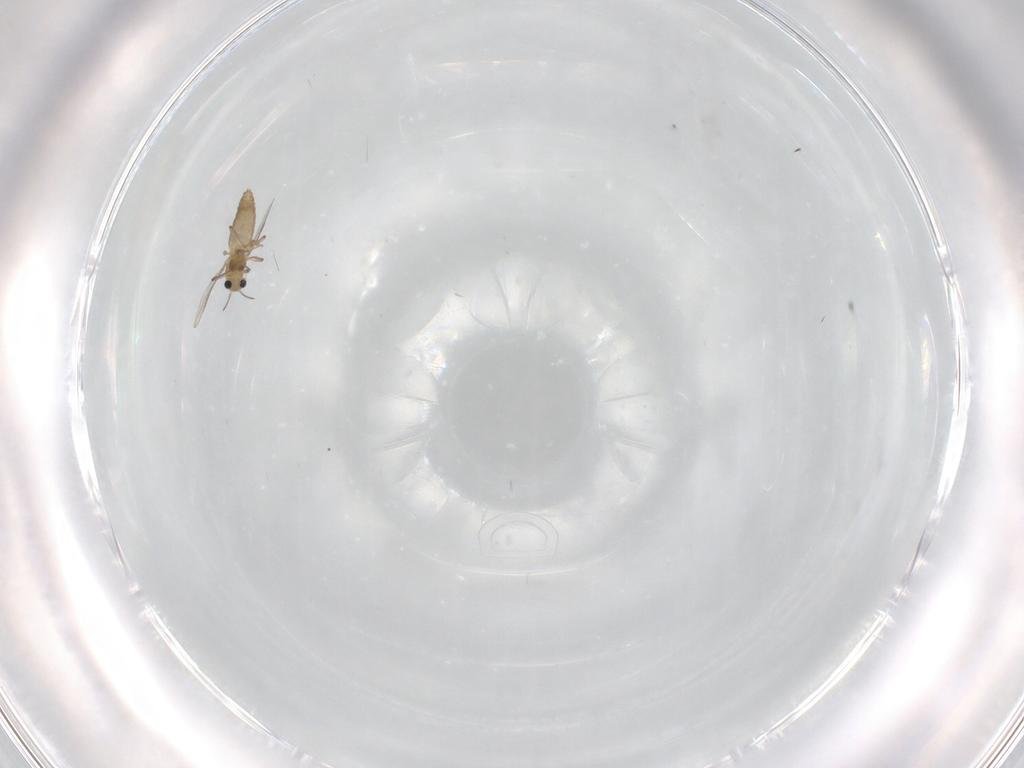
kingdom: Animalia
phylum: Arthropoda
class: Insecta
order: Diptera
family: Chironomidae
